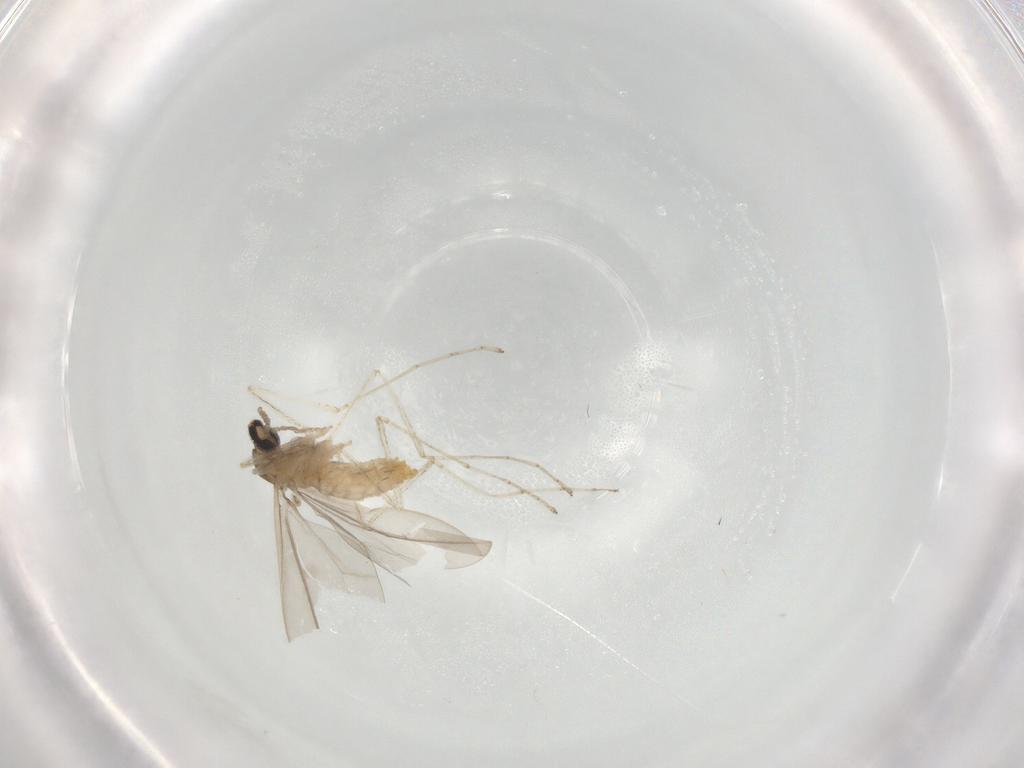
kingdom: Animalia
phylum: Arthropoda
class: Insecta
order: Diptera
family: Cecidomyiidae
